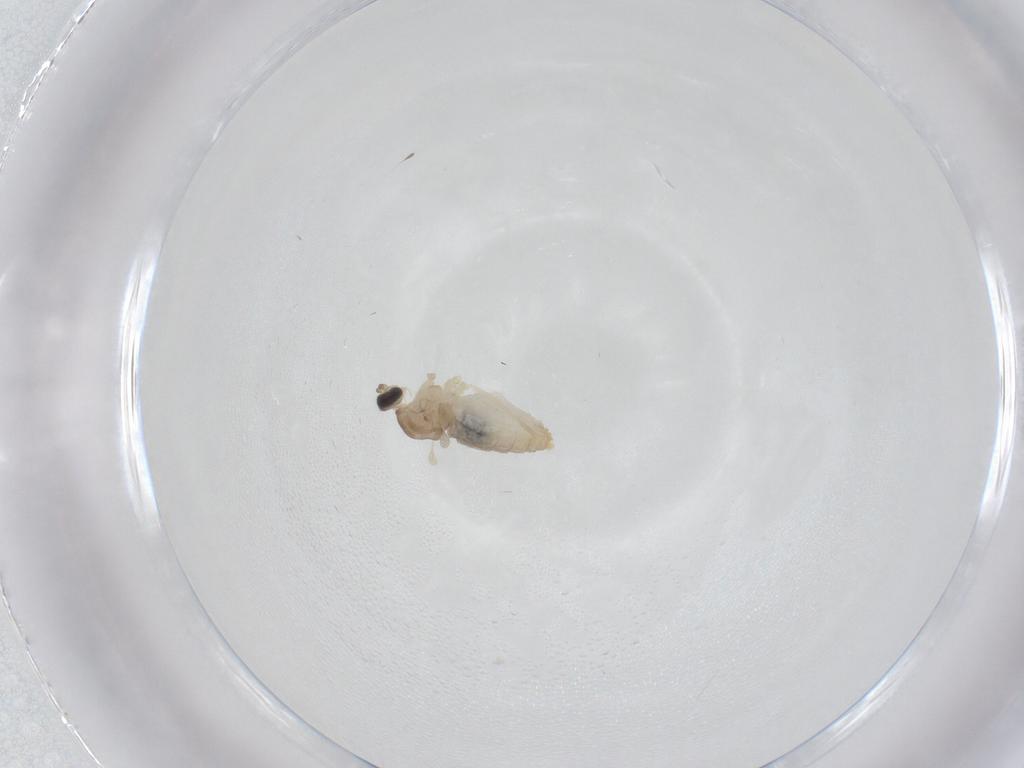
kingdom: Animalia
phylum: Arthropoda
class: Insecta
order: Diptera
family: Cecidomyiidae
